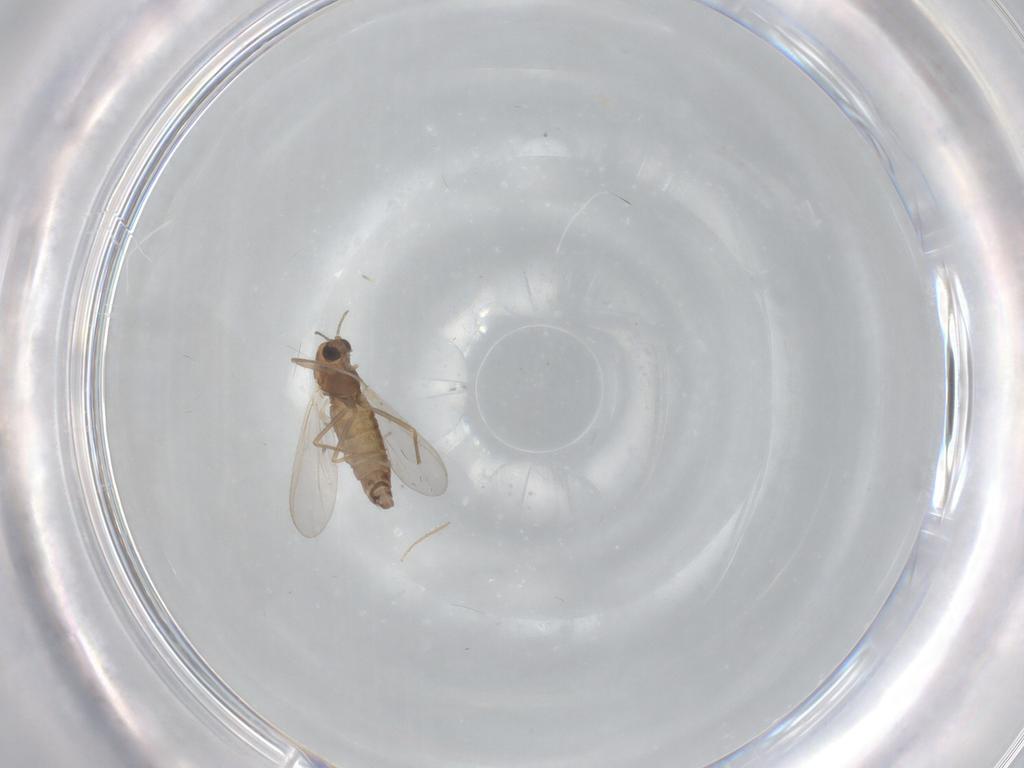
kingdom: Animalia
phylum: Arthropoda
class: Insecta
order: Diptera
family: Chironomidae
